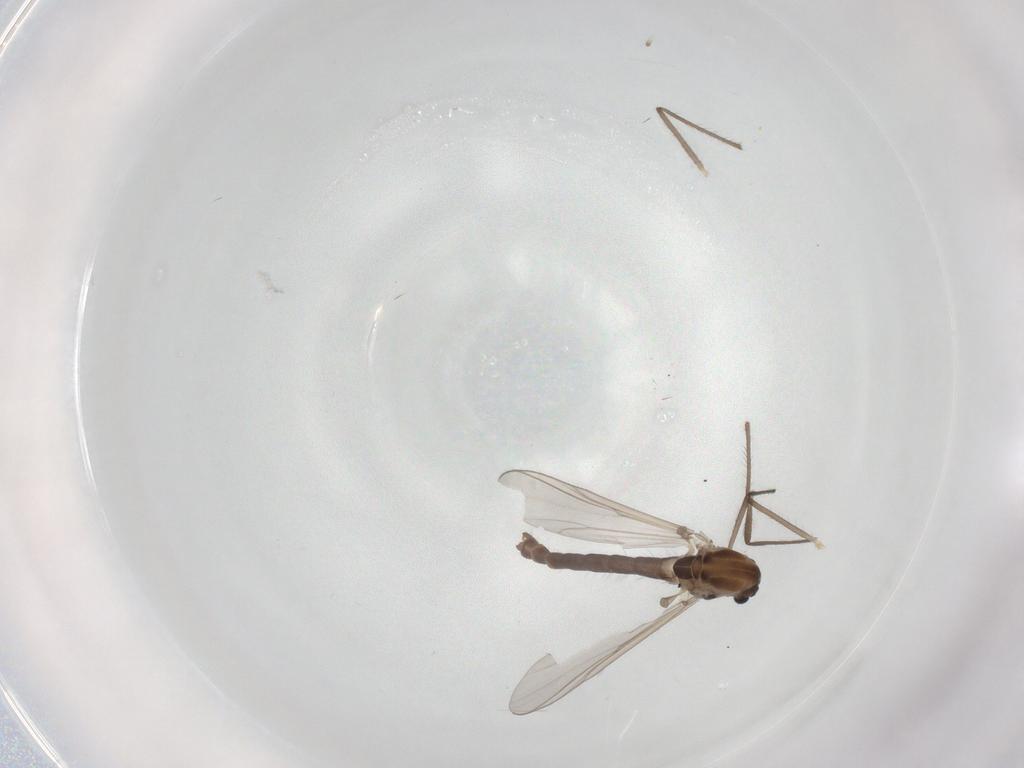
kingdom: Animalia
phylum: Arthropoda
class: Insecta
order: Diptera
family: Chironomidae
